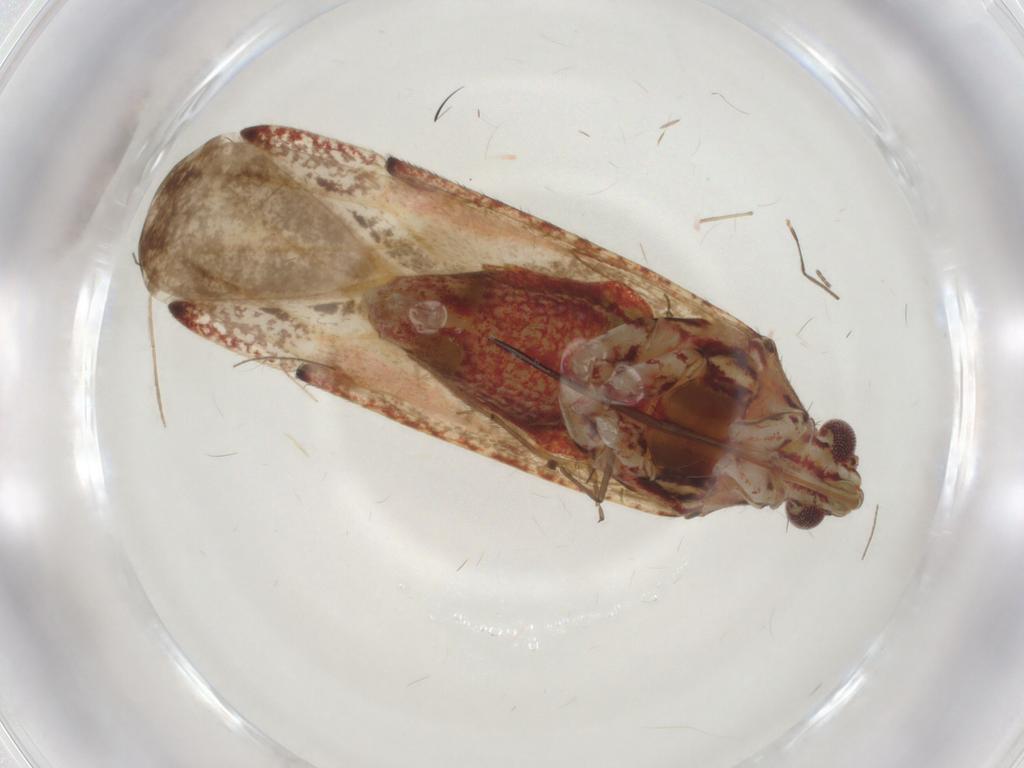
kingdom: Animalia
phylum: Arthropoda
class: Insecta
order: Hemiptera
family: Miridae
